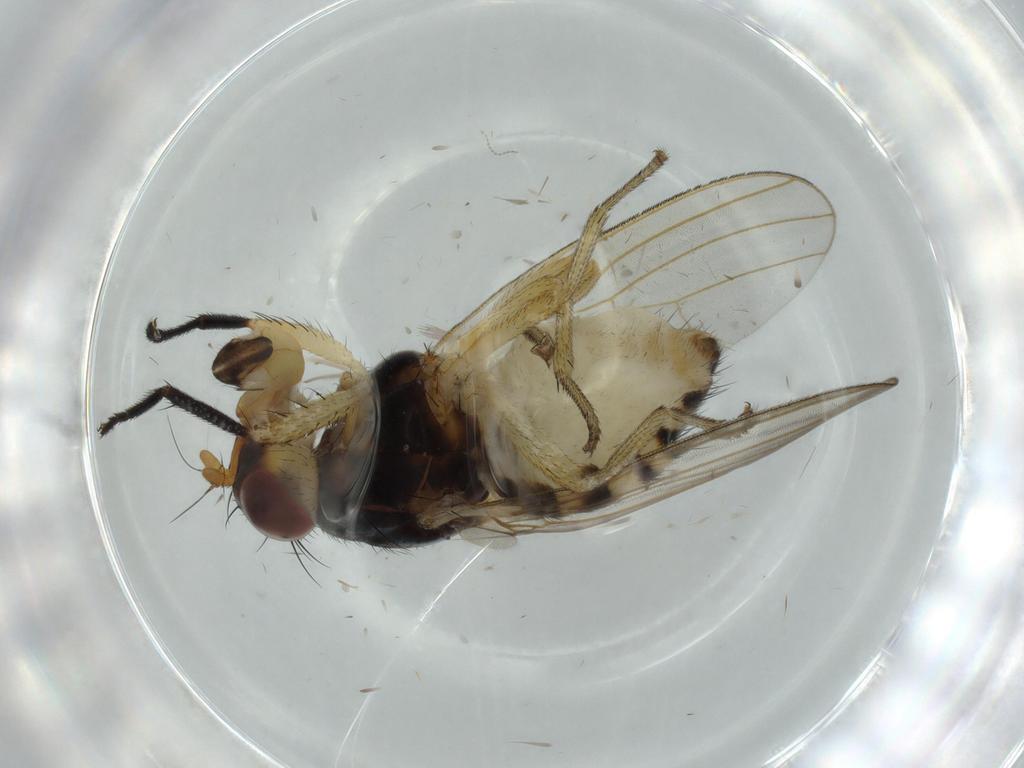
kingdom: Animalia
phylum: Arthropoda
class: Insecta
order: Diptera
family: Lauxaniidae
